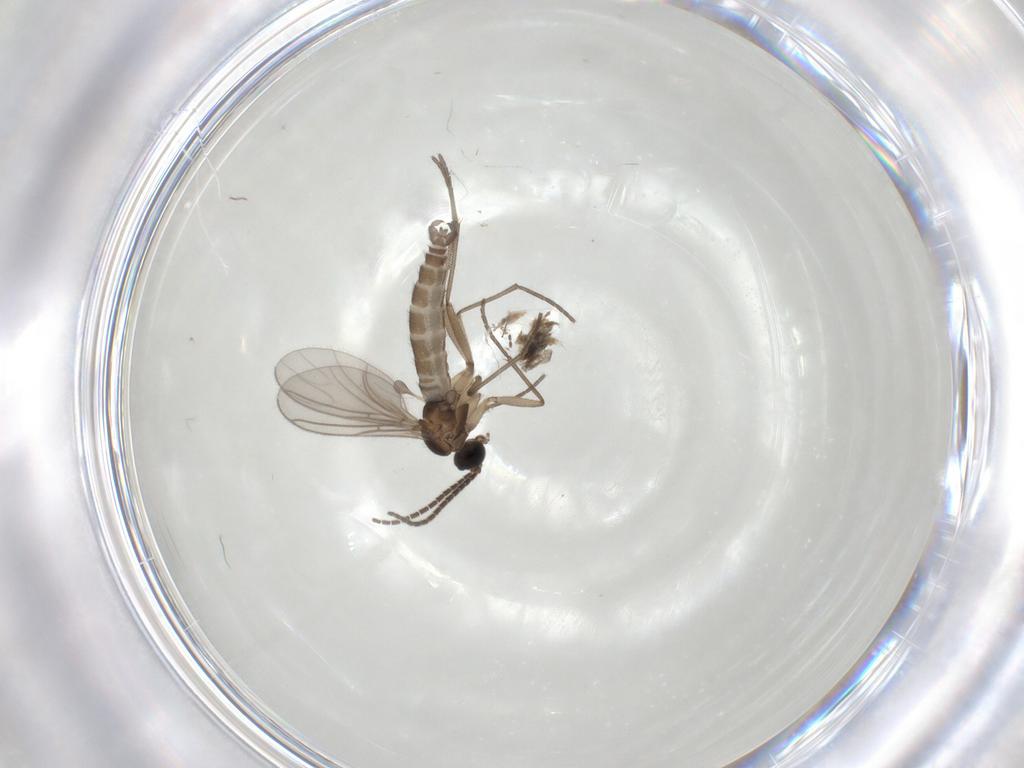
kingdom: Animalia
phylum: Arthropoda
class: Insecta
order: Diptera
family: Sciaridae
